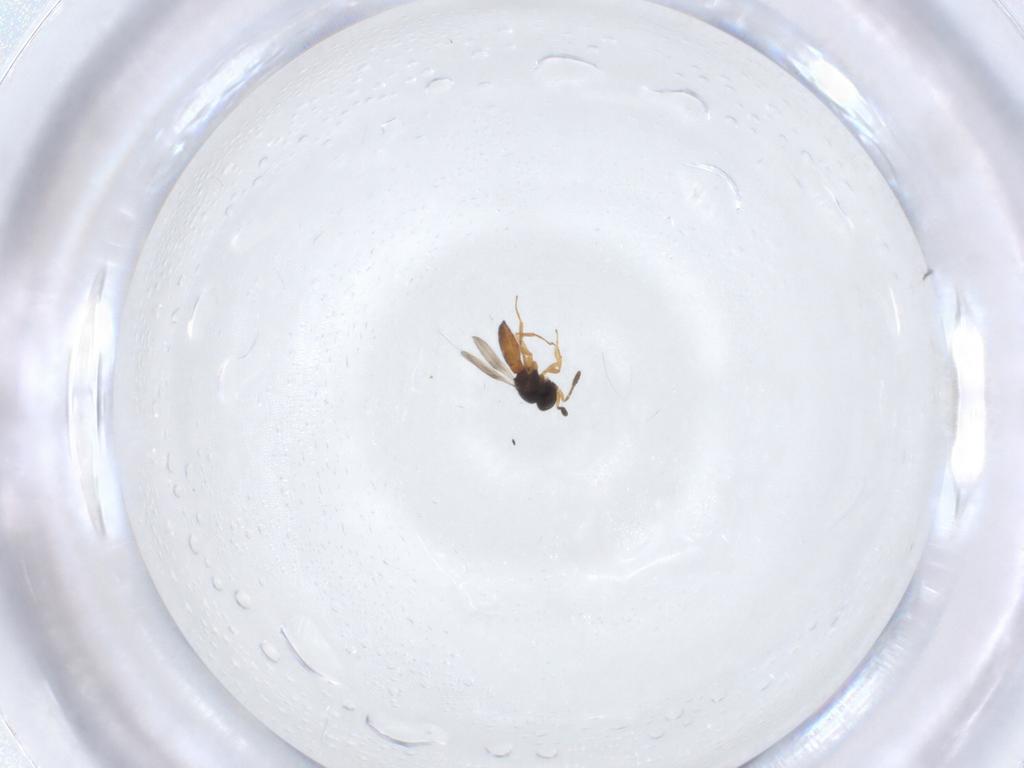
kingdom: Animalia
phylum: Arthropoda
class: Insecta
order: Hymenoptera
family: Scelionidae
